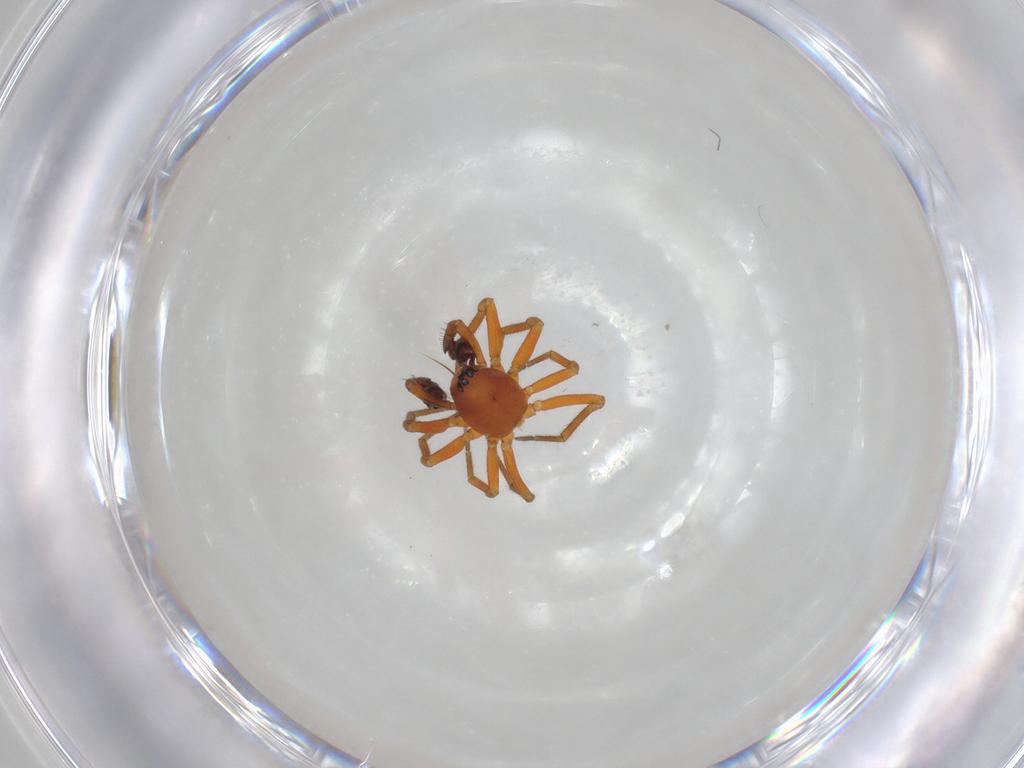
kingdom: Animalia
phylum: Arthropoda
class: Arachnida
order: Araneae
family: Linyphiidae
